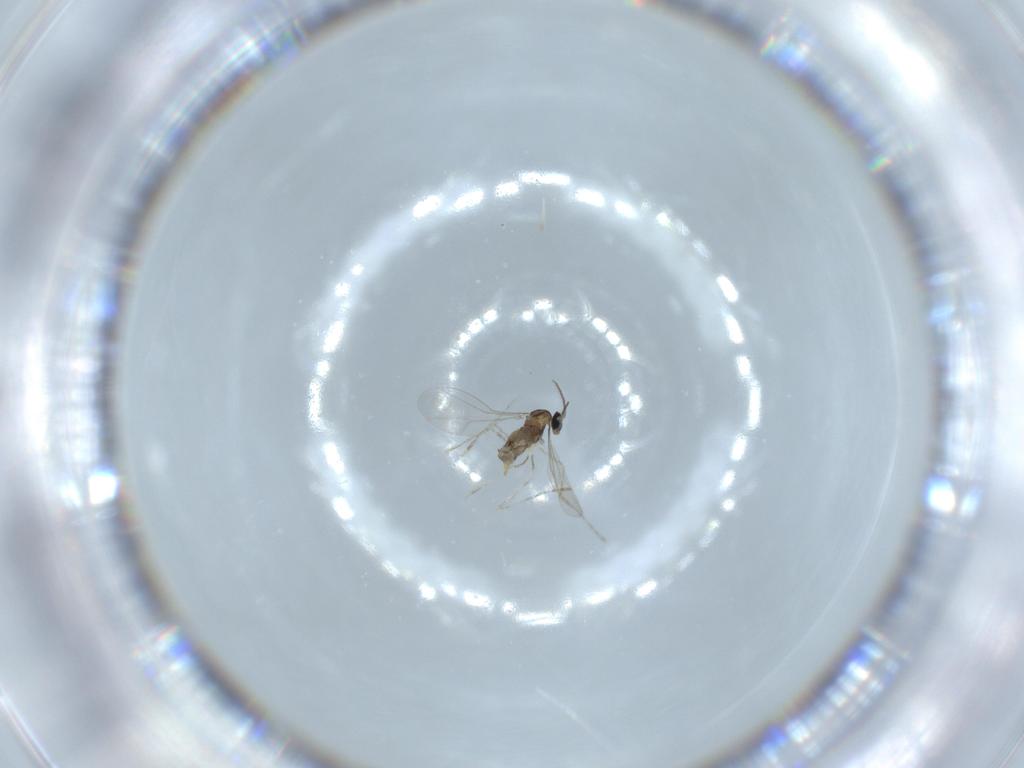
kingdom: Animalia
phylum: Arthropoda
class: Insecta
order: Diptera
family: Cecidomyiidae
